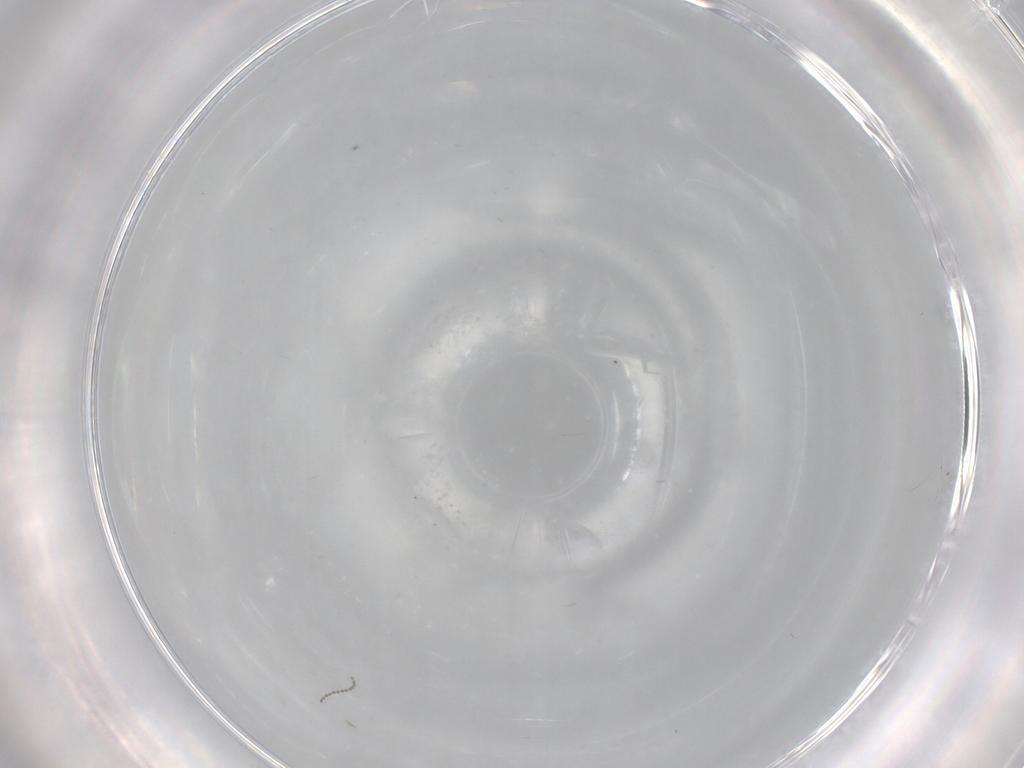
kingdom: Animalia
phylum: Arthropoda
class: Insecta
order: Diptera
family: Cecidomyiidae
